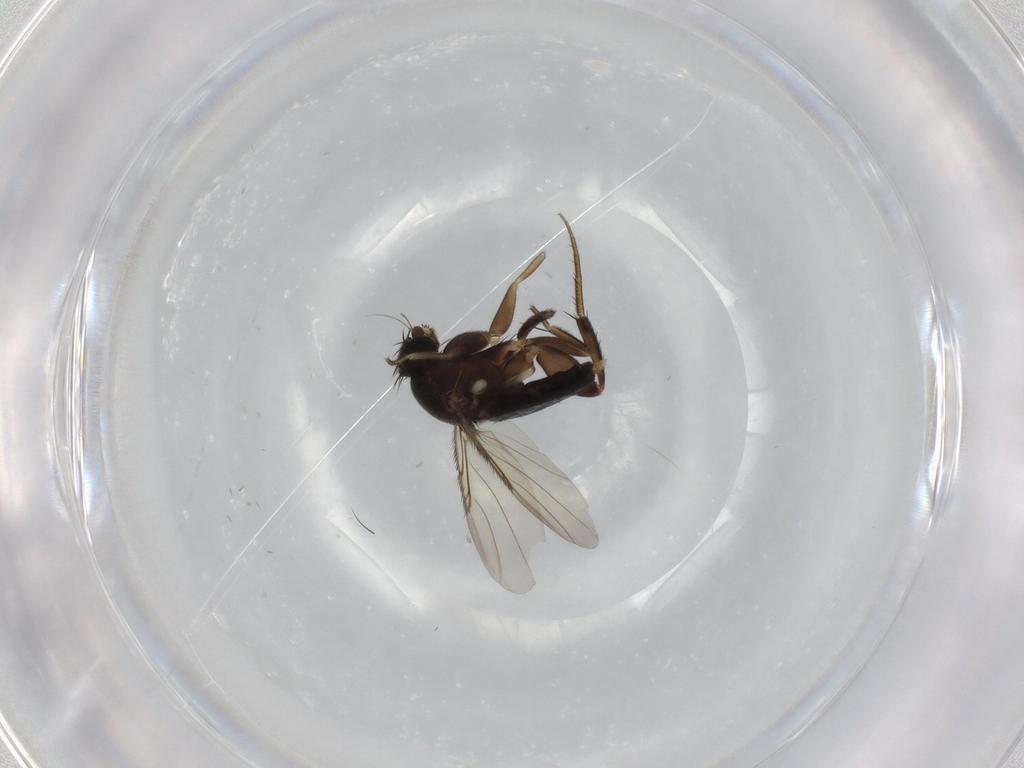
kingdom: Animalia
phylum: Arthropoda
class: Insecta
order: Diptera
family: Phoridae
